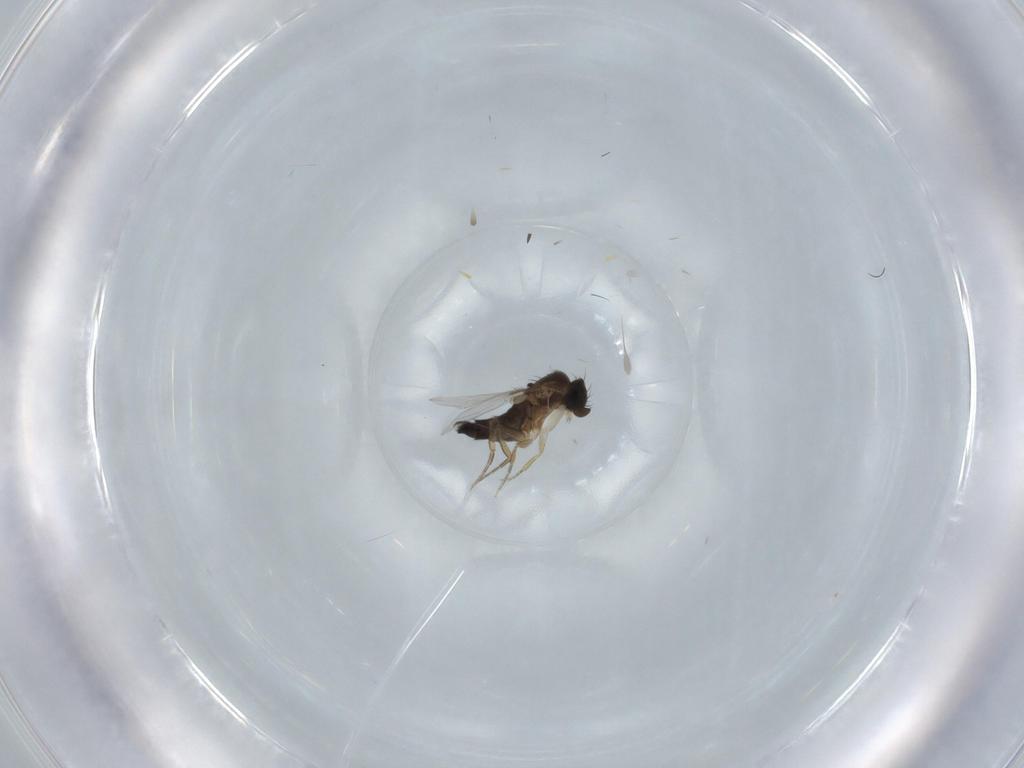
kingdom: Animalia
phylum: Arthropoda
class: Insecta
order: Diptera
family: Phoridae
